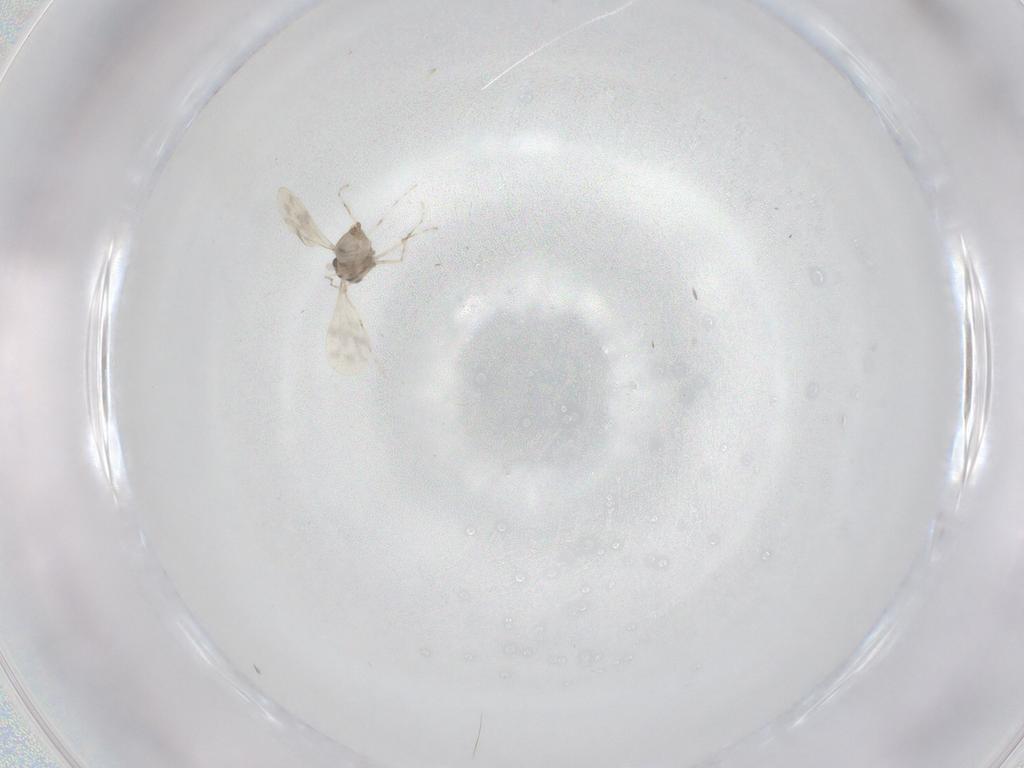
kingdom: Animalia
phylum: Arthropoda
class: Insecta
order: Diptera
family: Cecidomyiidae
